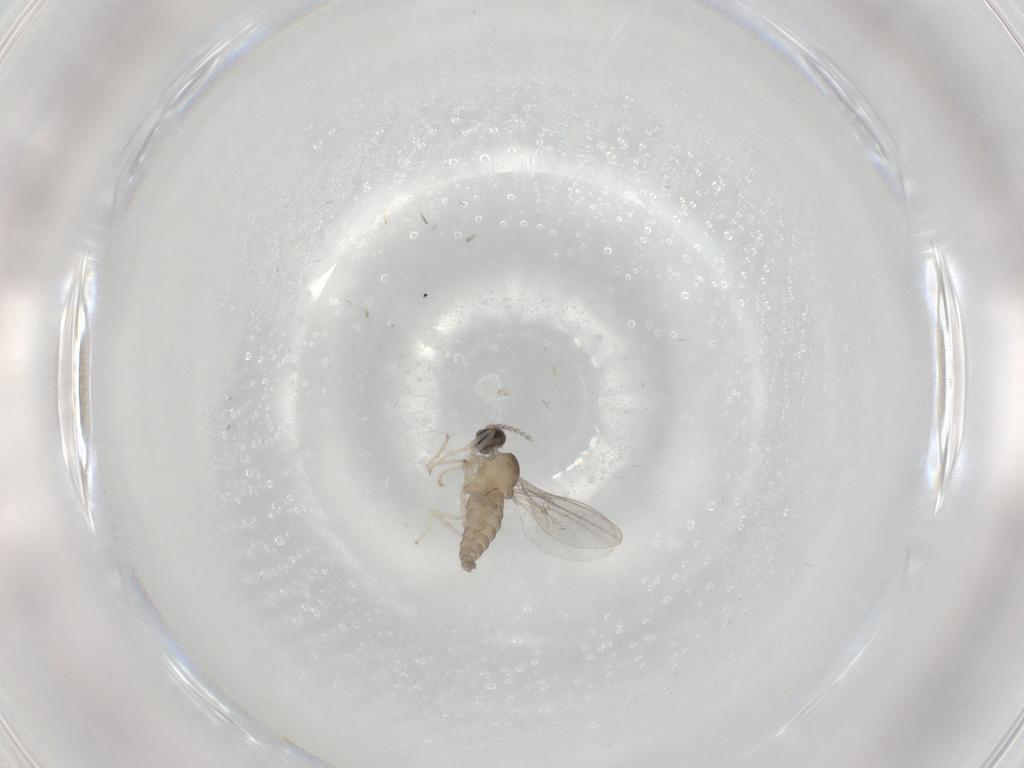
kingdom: Animalia
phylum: Arthropoda
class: Insecta
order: Diptera
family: Cecidomyiidae
